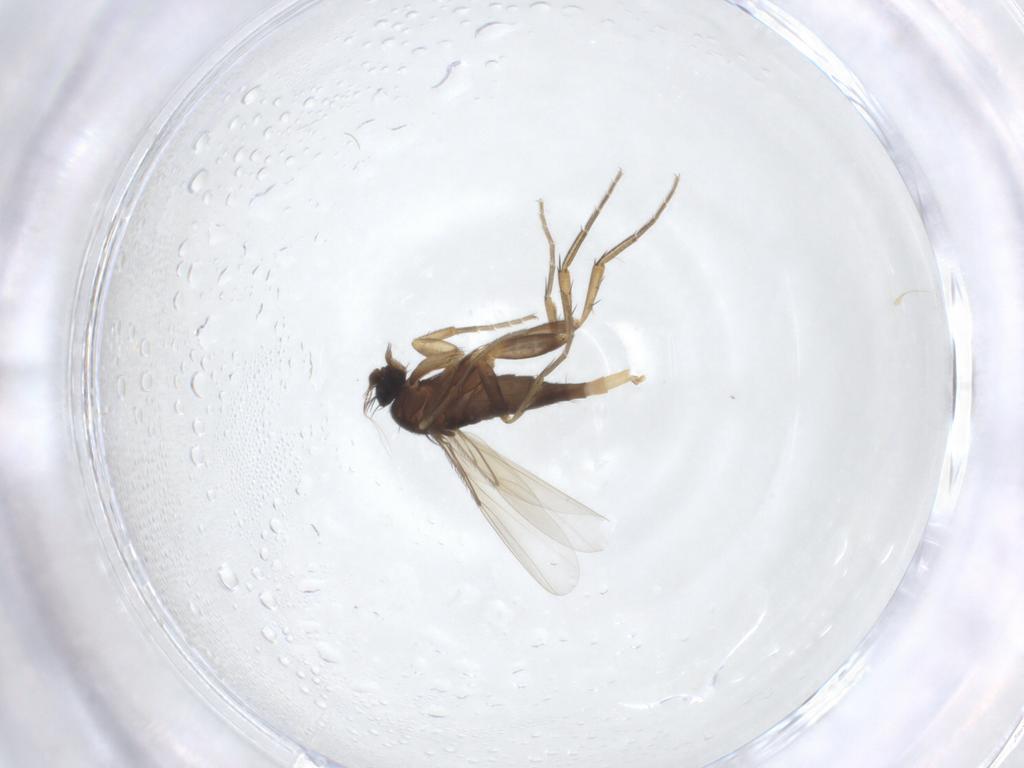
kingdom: Animalia
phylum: Arthropoda
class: Insecta
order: Diptera
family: Phoridae
